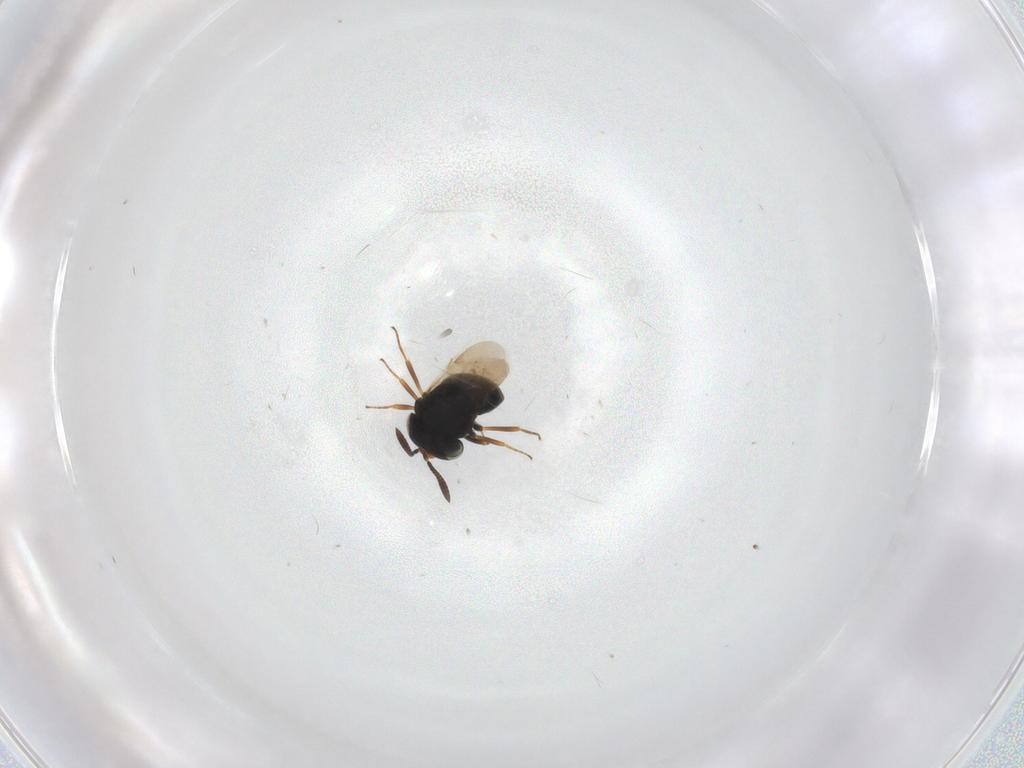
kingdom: Animalia
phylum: Arthropoda
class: Insecta
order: Hymenoptera
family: Scelionidae
